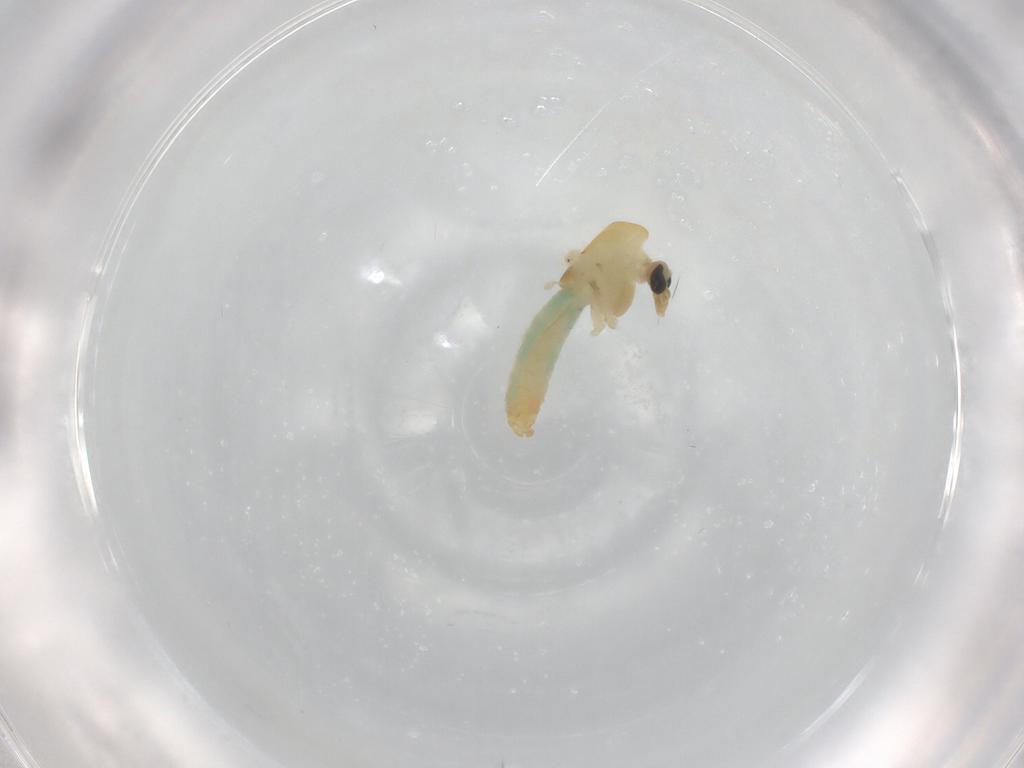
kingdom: Animalia
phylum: Arthropoda
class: Insecta
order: Diptera
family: Chironomidae
